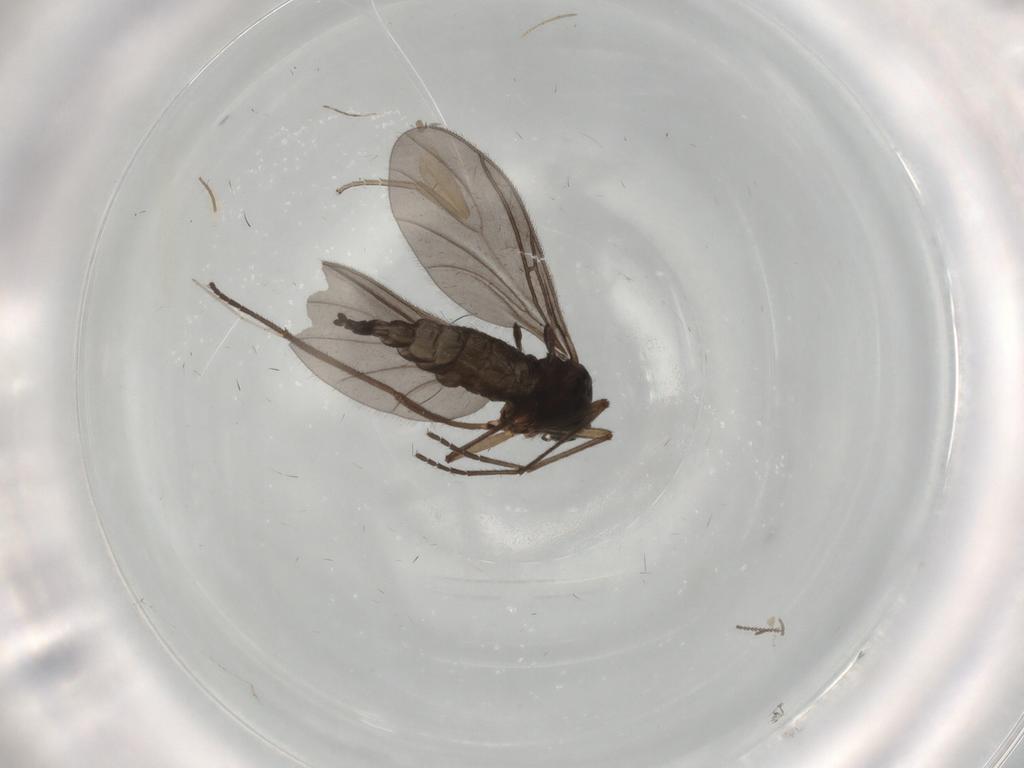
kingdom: Animalia
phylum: Arthropoda
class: Insecta
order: Diptera
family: Sciaridae
